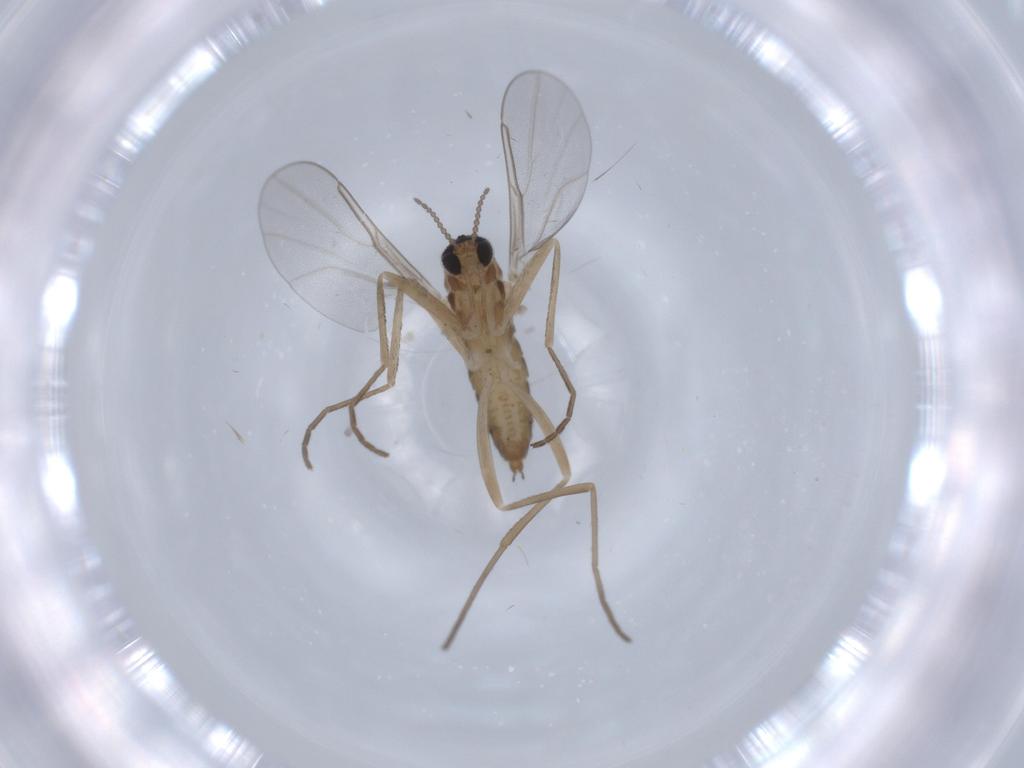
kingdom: Animalia
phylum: Arthropoda
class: Insecta
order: Diptera
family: Cecidomyiidae
